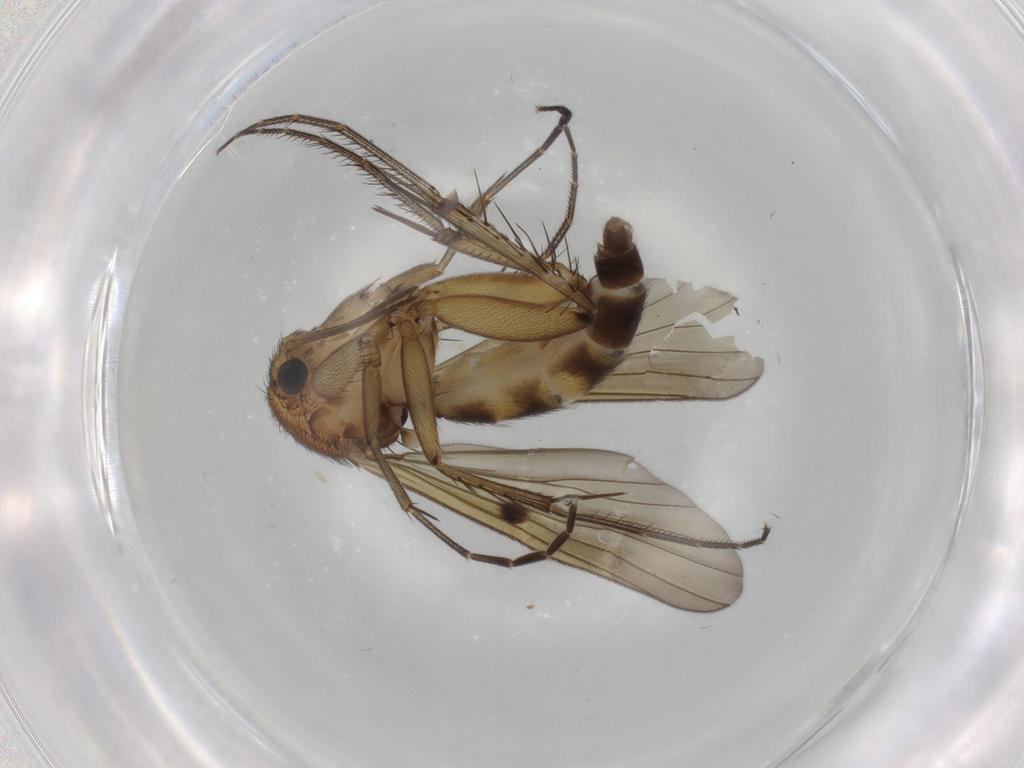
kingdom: Animalia
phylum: Arthropoda
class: Insecta
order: Diptera
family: Mycetophilidae
